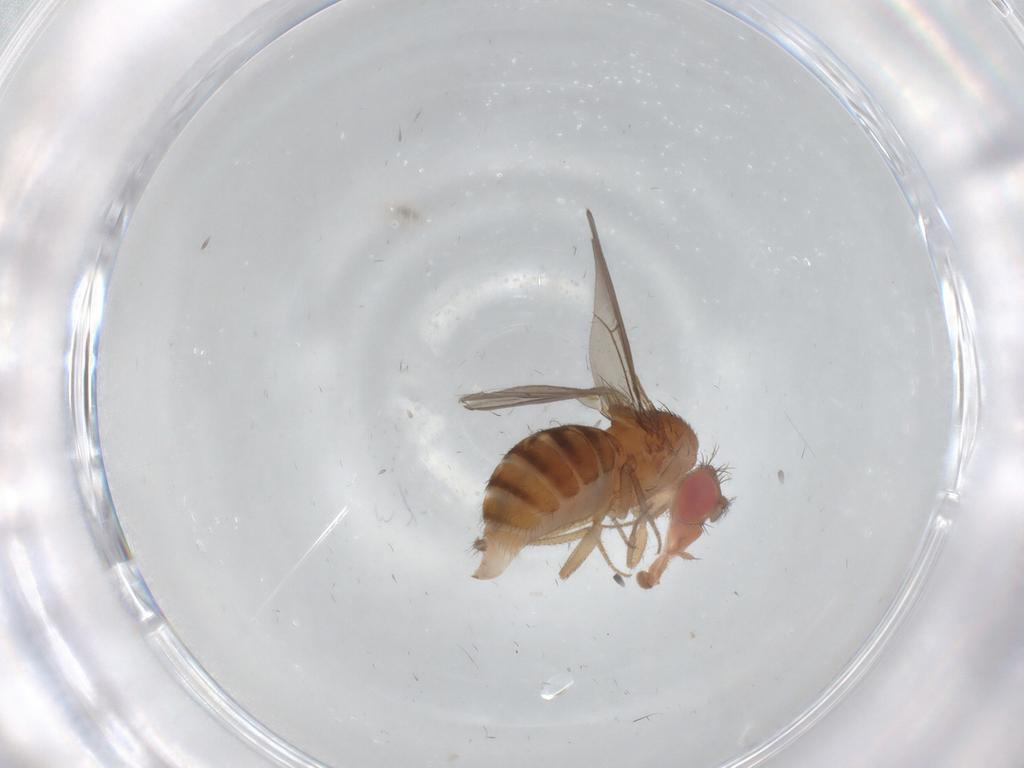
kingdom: Animalia
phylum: Arthropoda
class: Insecta
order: Diptera
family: Drosophilidae
